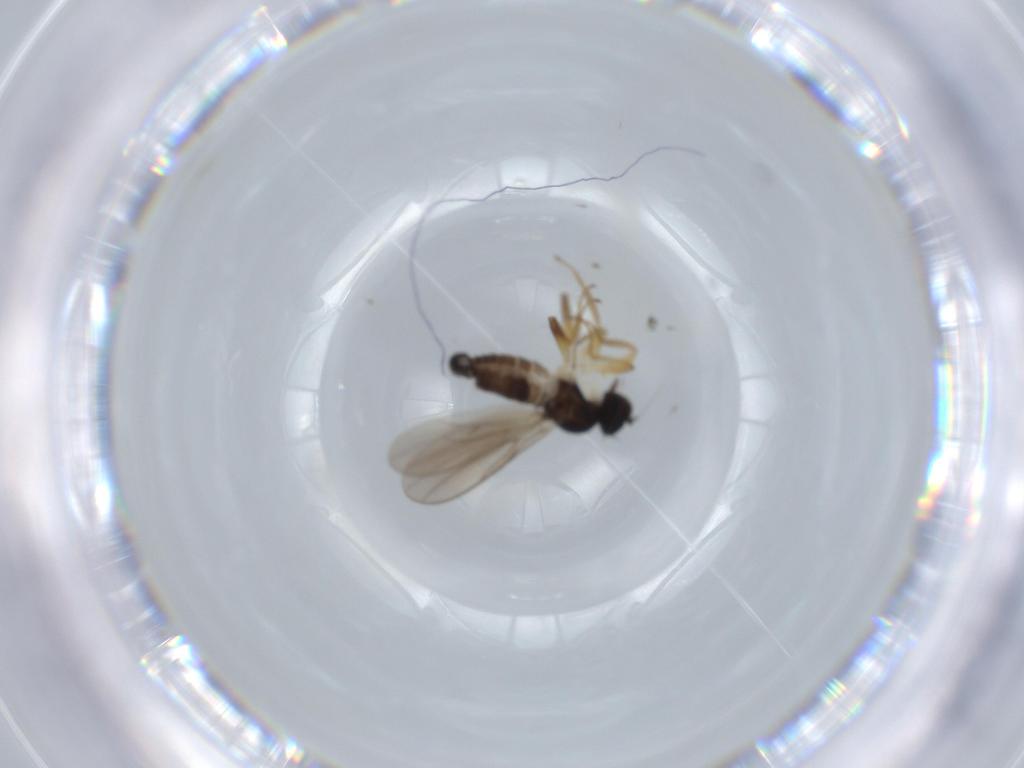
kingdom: Animalia
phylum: Arthropoda
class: Insecta
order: Diptera
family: Hybotidae
